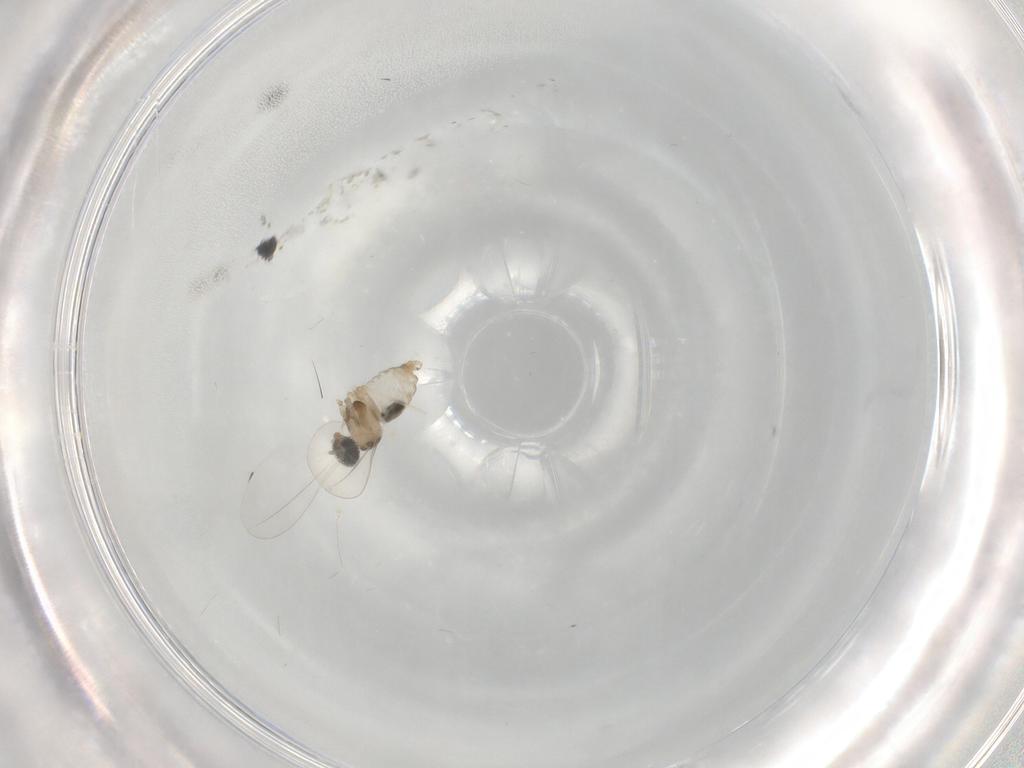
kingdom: Animalia
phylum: Arthropoda
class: Insecta
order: Diptera
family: Cecidomyiidae
